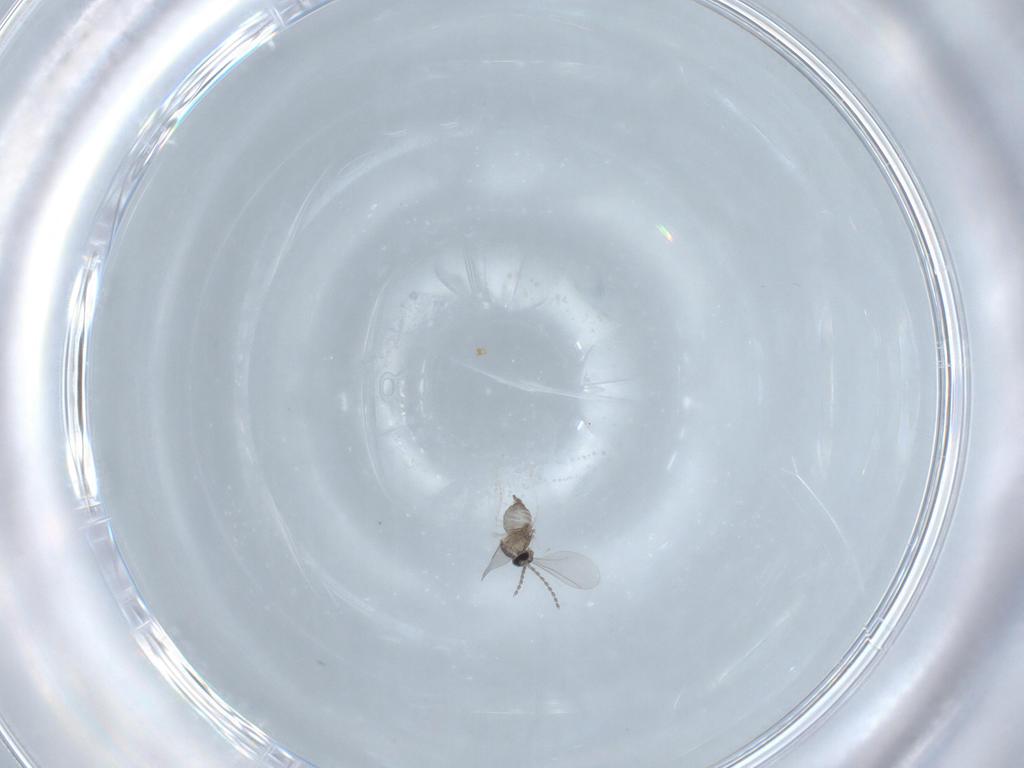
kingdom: Animalia
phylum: Arthropoda
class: Insecta
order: Diptera
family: Cecidomyiidae
